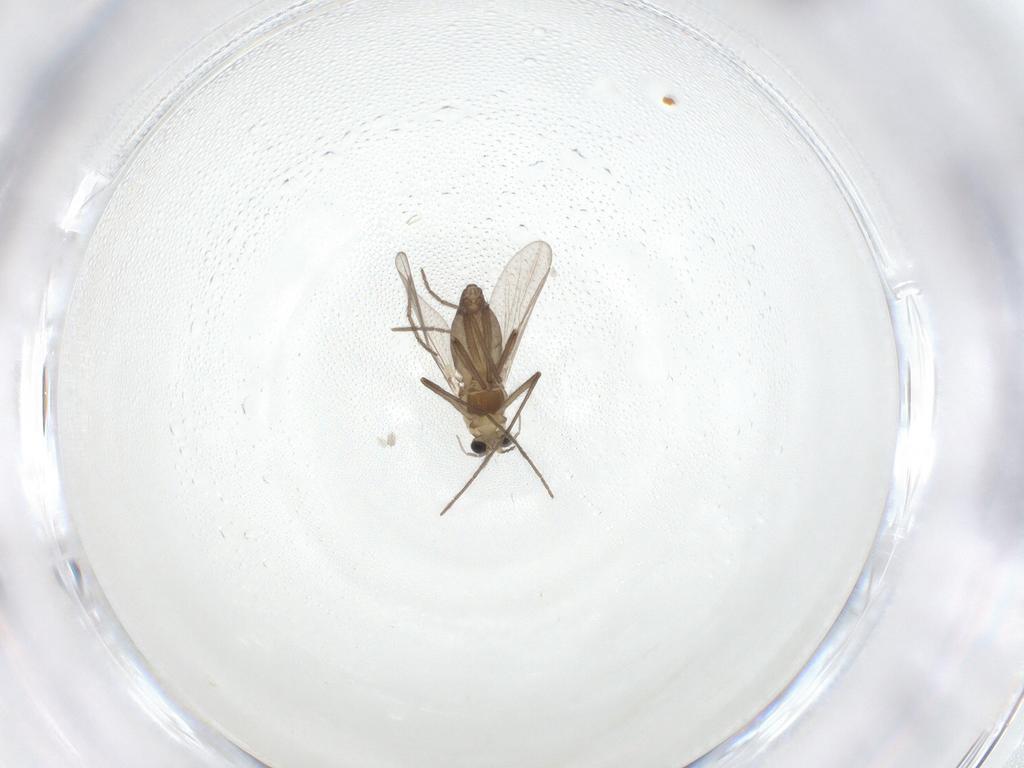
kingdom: Animalia
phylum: Arthropoda
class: Insecta
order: Diptera
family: Chironomidae
